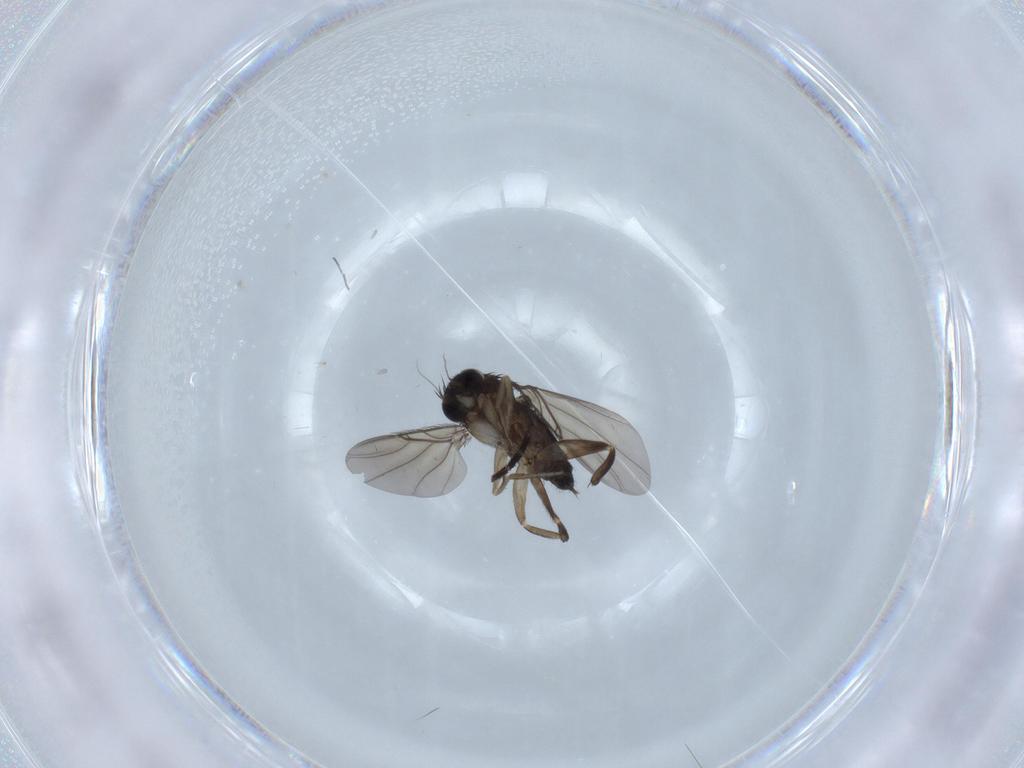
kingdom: Animalia
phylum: Arthropoda
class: Insecta
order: Diptera
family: Phoridae
